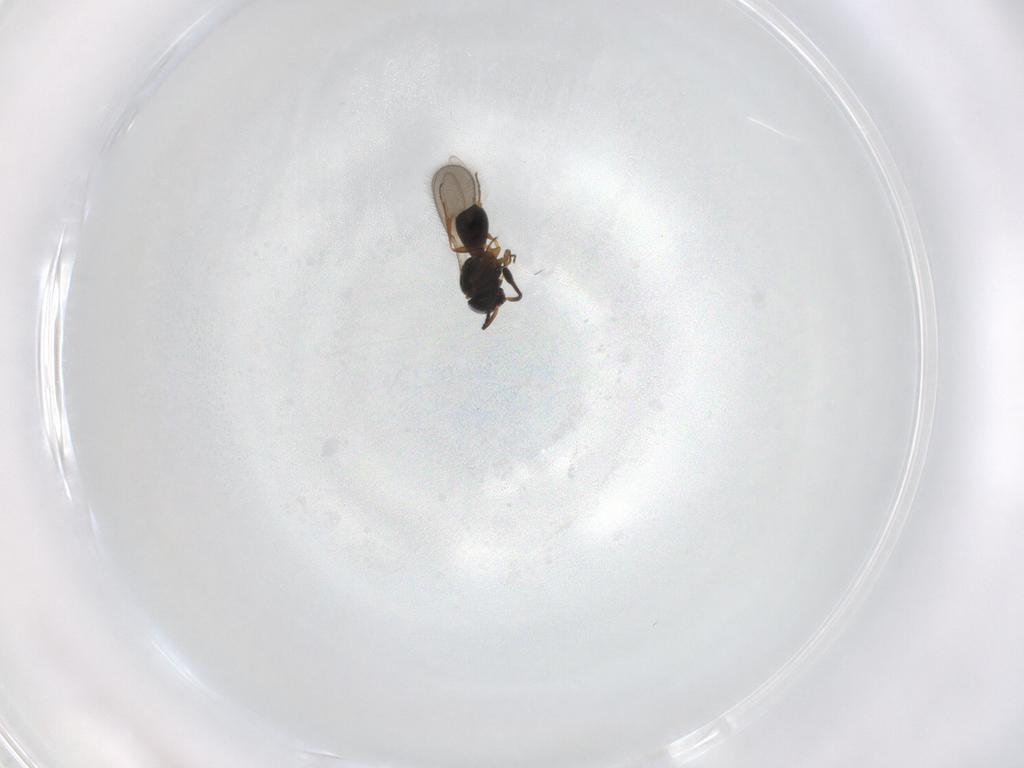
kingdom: Animalia
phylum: Arthropoda
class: Insecta
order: Hymenoptera
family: Scelionidae
